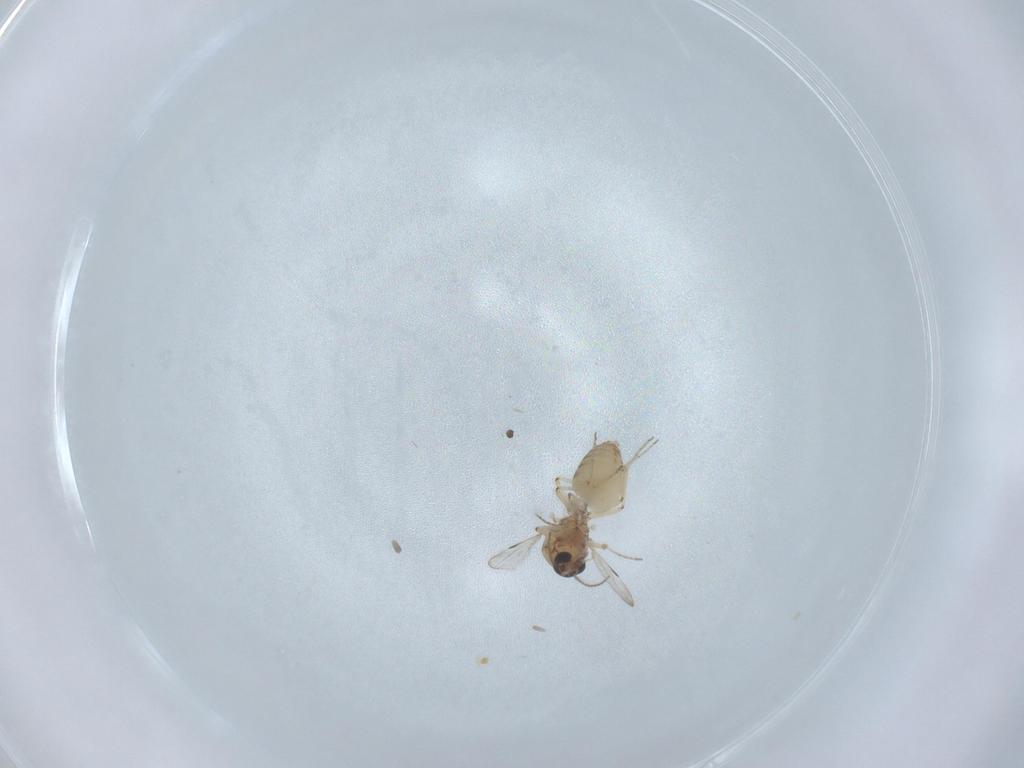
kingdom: Animalia
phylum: Arthropoda
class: Insecta
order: Diptera
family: Ceratopogonidae
